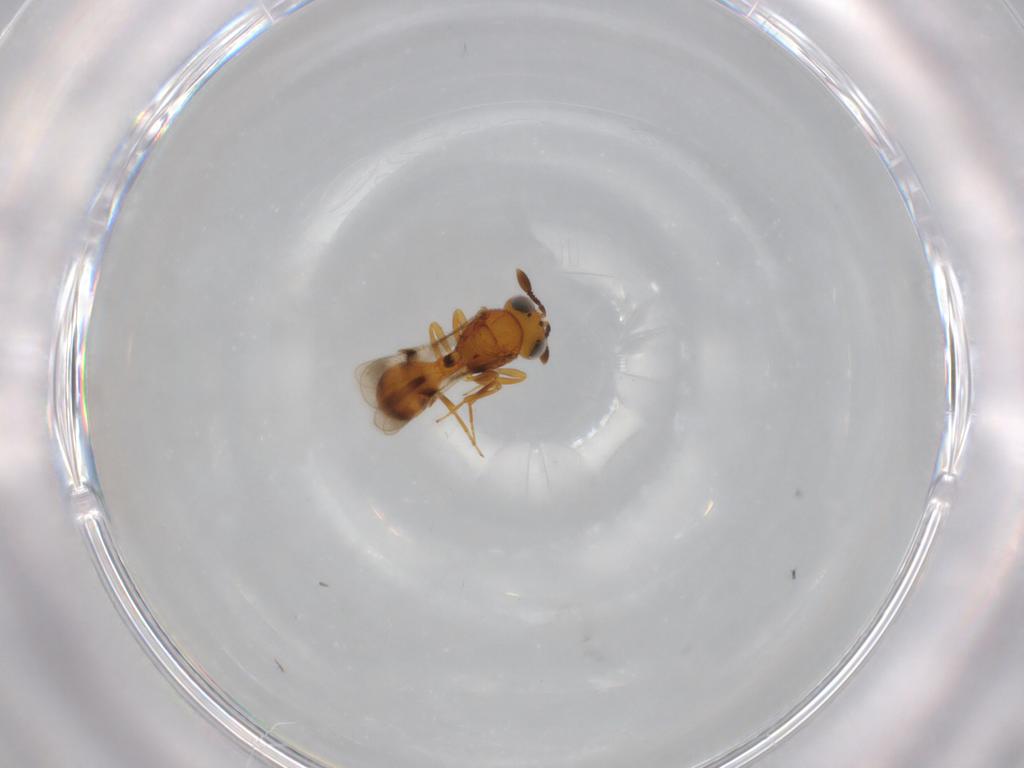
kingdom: Animalia
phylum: Arthropoda
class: Insecta
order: Hymenoptera
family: Scelionidae
